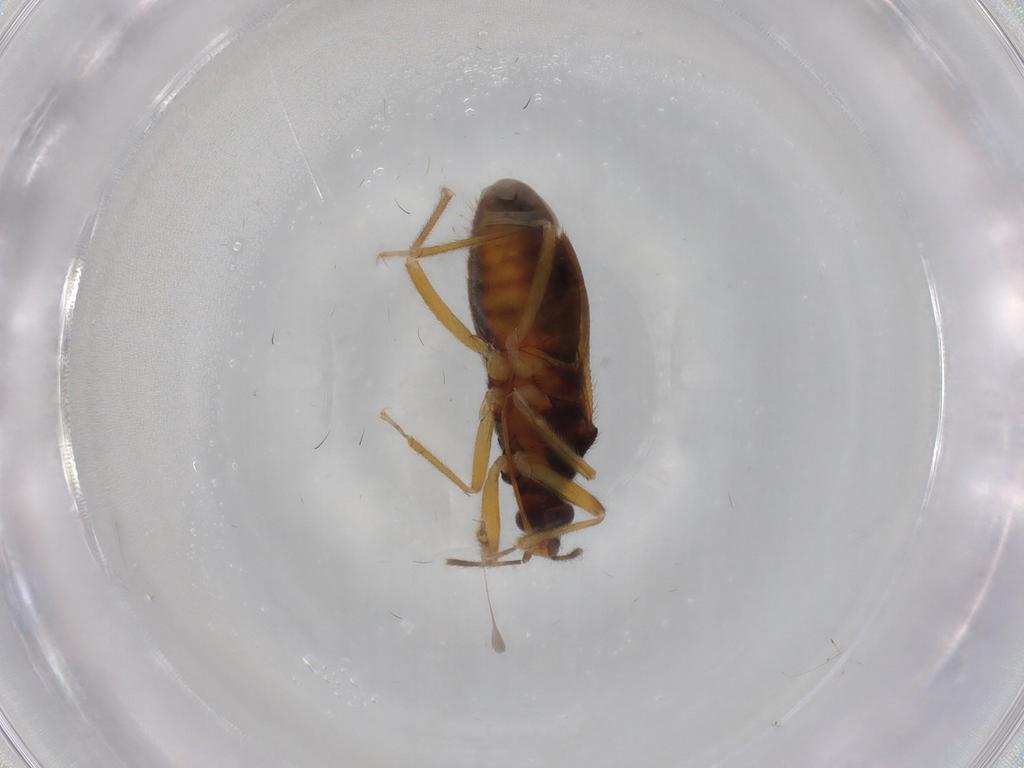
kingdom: Animalia
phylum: Arthropoda
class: Insecta
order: Hemiptera
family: Anthocoridae
